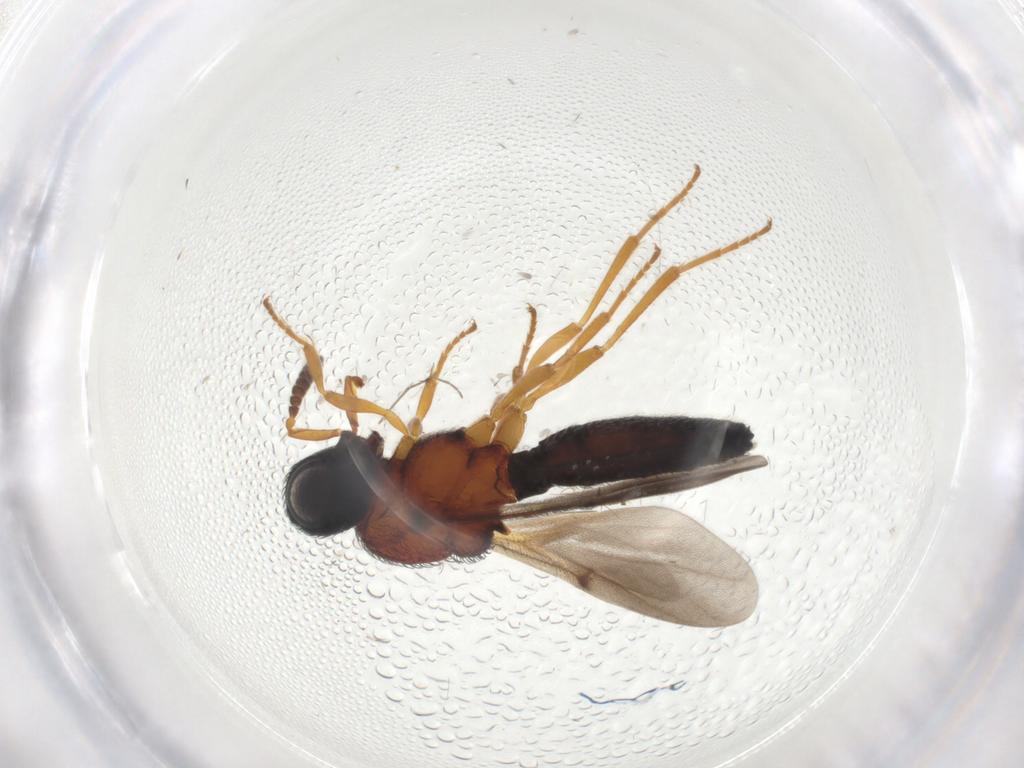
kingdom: Animalia
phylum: Arthropoda
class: Insecta
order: Hymenoptera
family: Scelionidae
